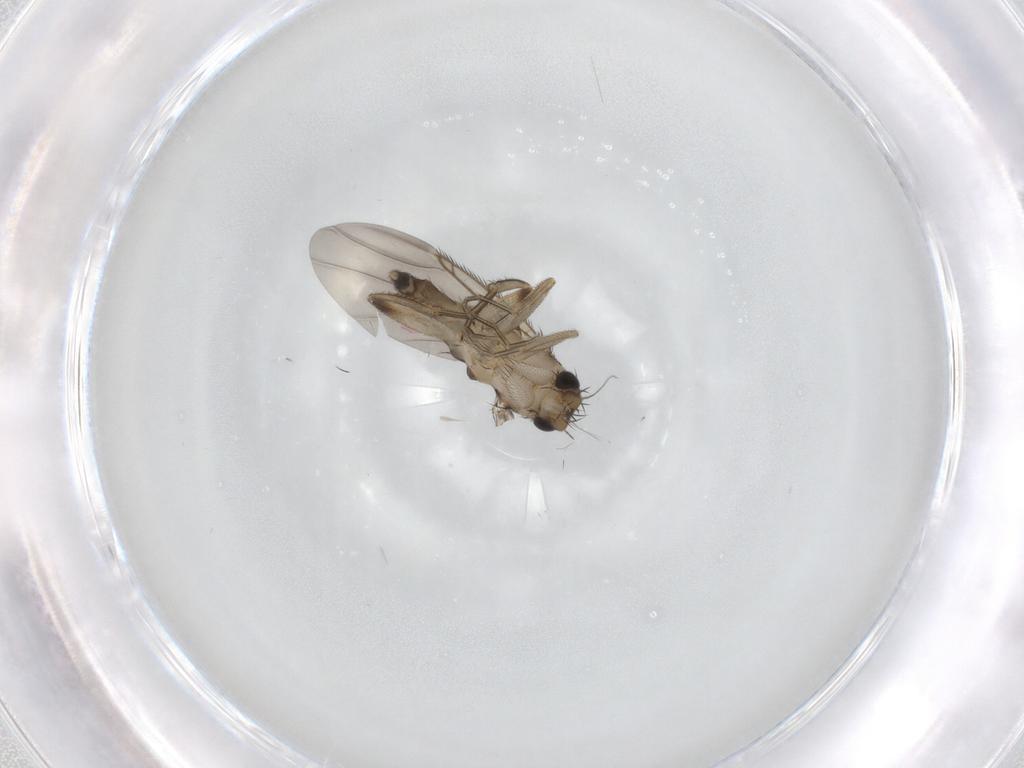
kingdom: Animalia
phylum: Arthropoda
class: Insecta
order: Diptera
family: Phoridae
